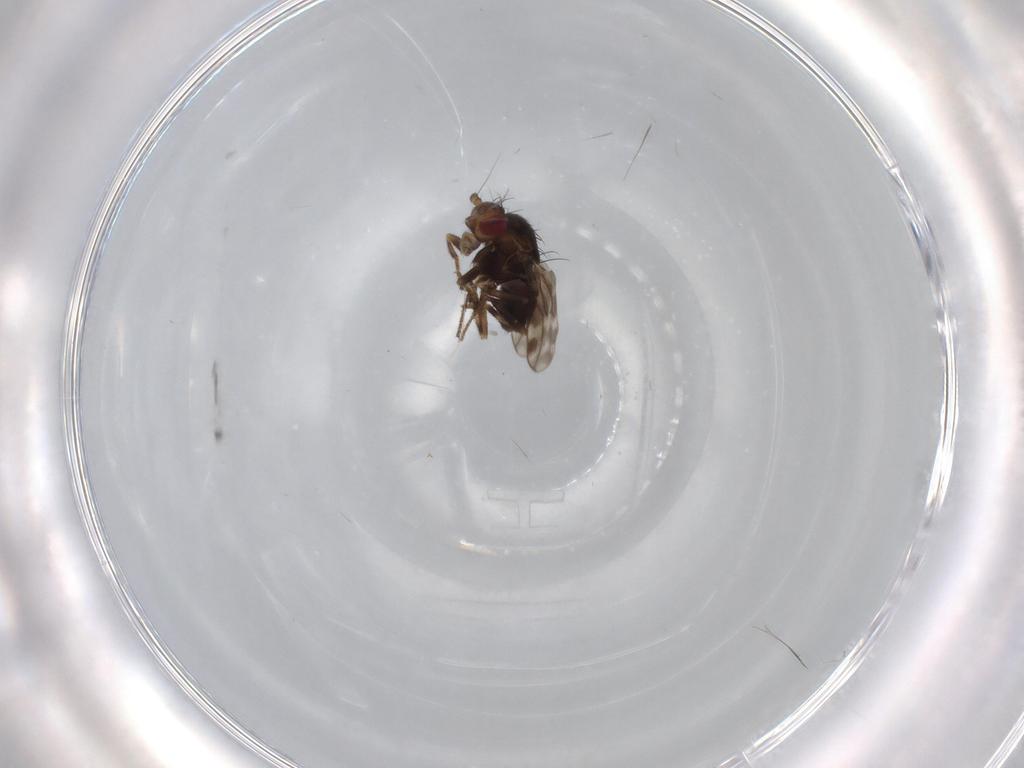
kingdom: Animalia
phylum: Arthropoda
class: Insecta
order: Diptera
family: Sphaeroceridae
